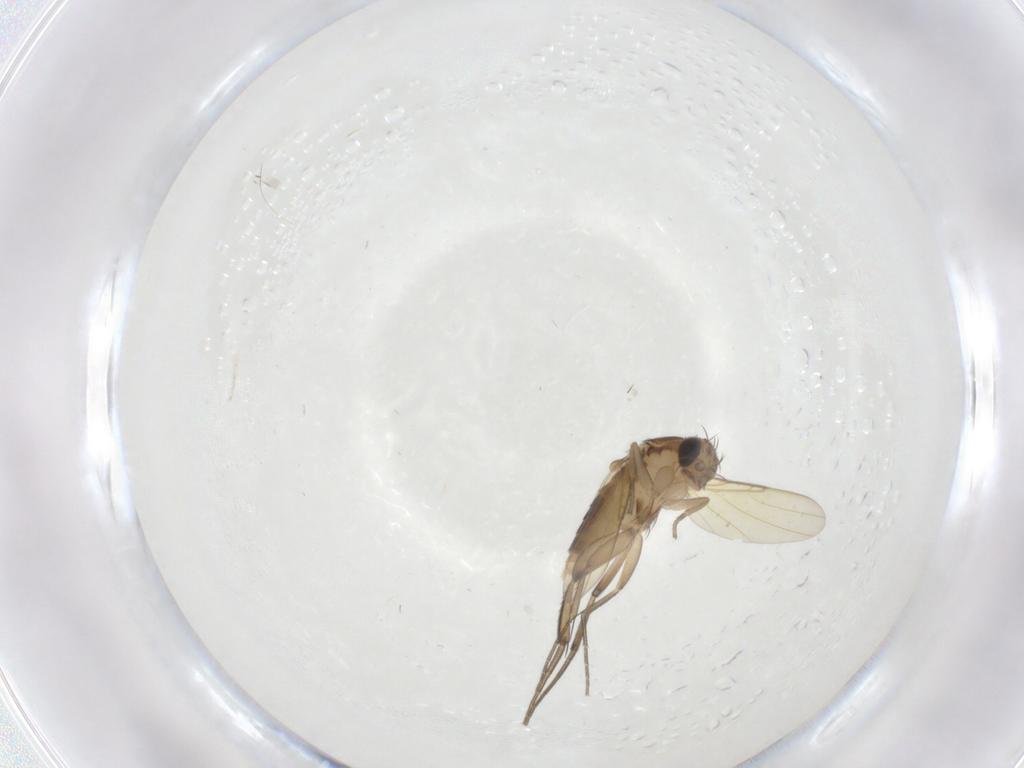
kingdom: Animalia
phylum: Arthropoda
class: Insecta
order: Diptera
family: Phoridae
